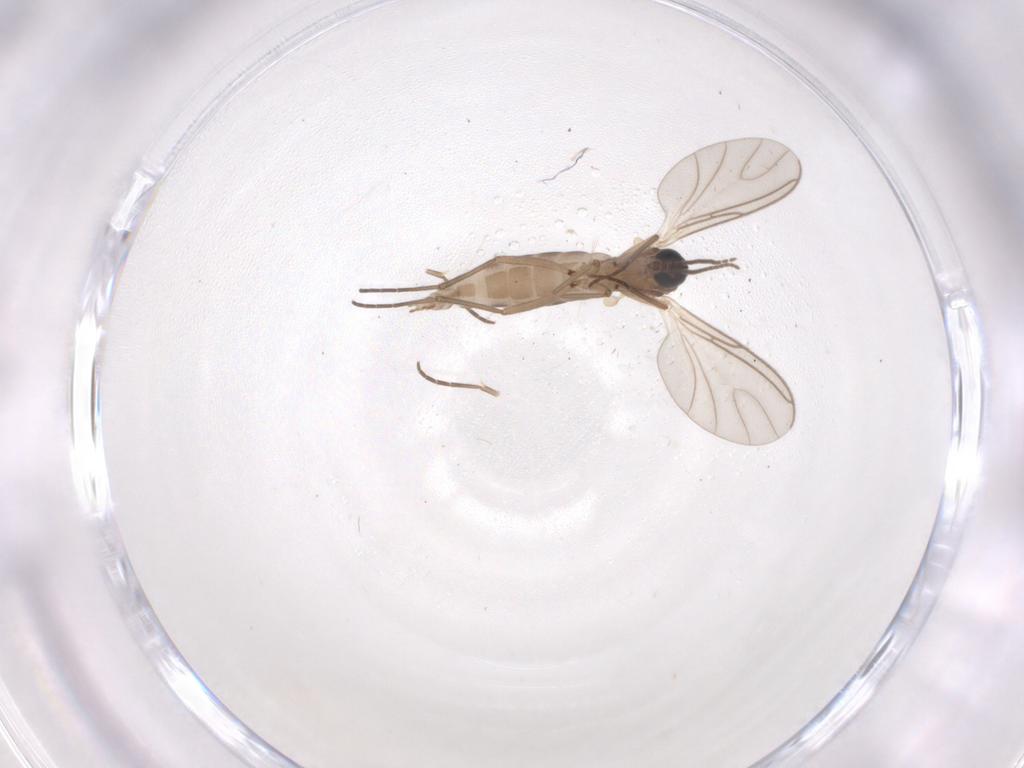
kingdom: Animalia
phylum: Arthropoda
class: Insecta
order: Diptera
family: Sciaridae
